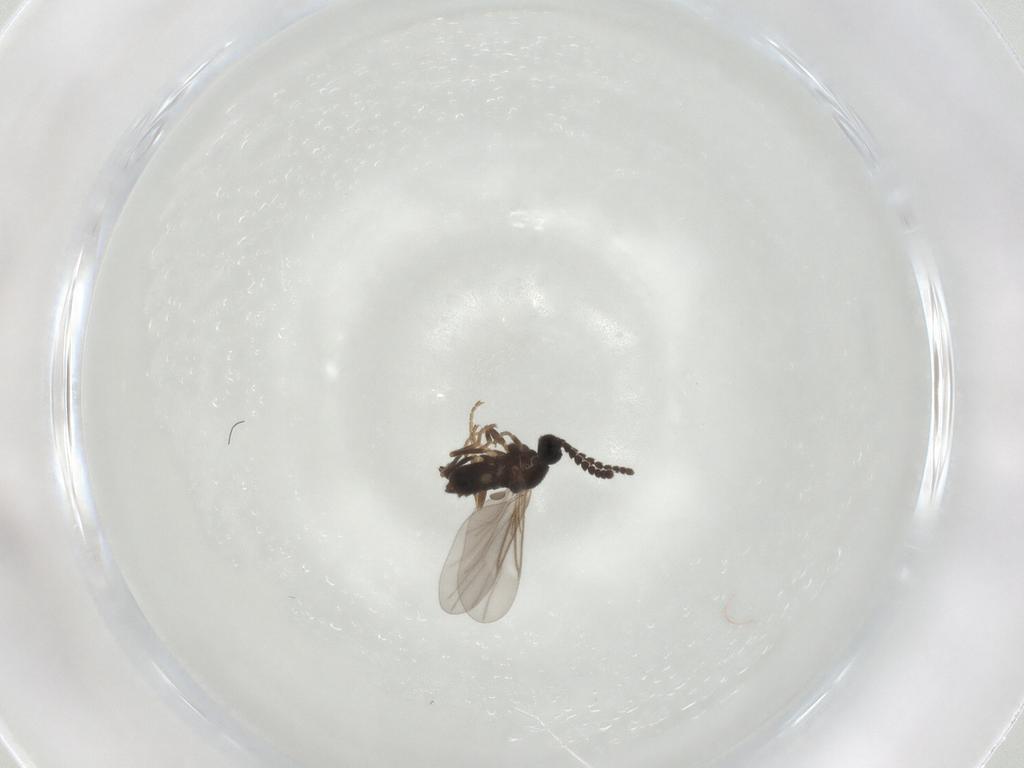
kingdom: Animalia
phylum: Arthropoda
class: Insecta
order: Diptera
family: Scatopsidae
